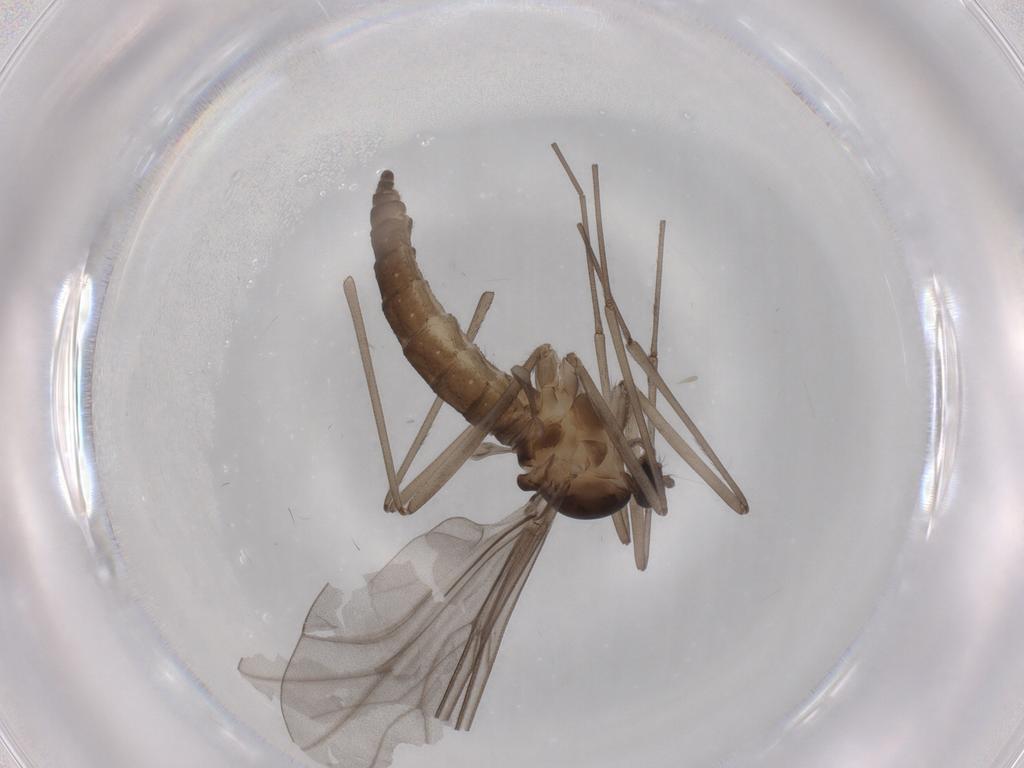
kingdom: Animalia
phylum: Arthropoda
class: Insecta
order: Diptera
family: Cecidomyiidae
